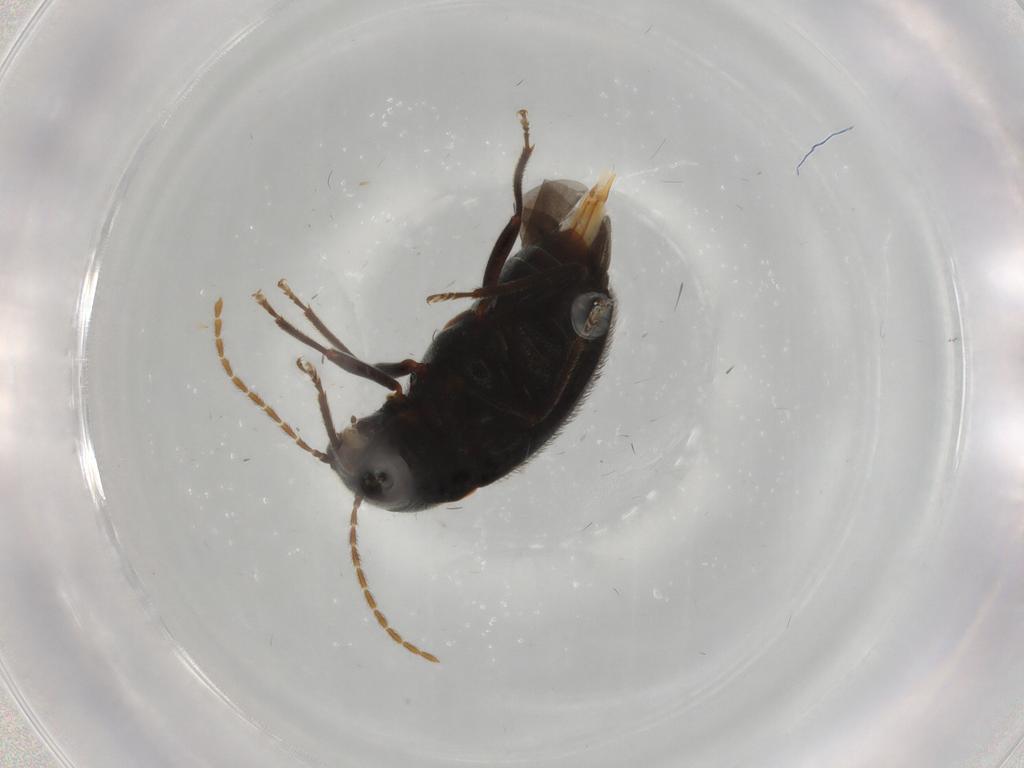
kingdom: Animalia
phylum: Arthropoda
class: Insecta
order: Coleoptera
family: Ptilodactylidae
